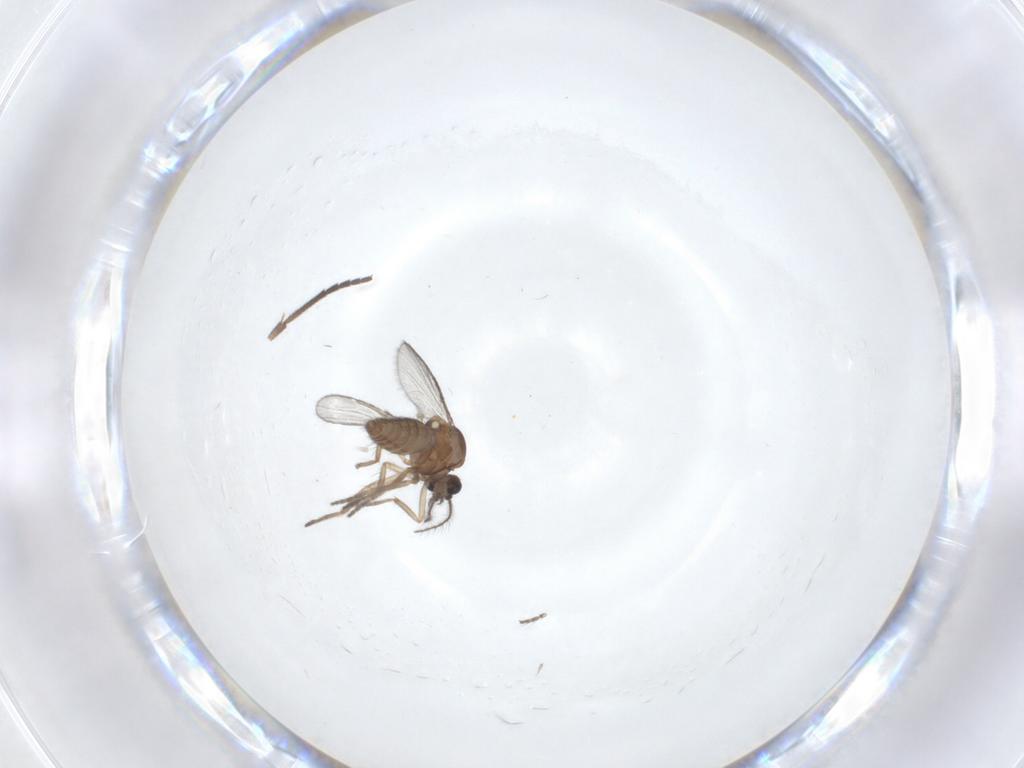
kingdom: Animalia
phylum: Arthropoda
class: Insecta
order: Diptera
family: Ceratopogonidae
